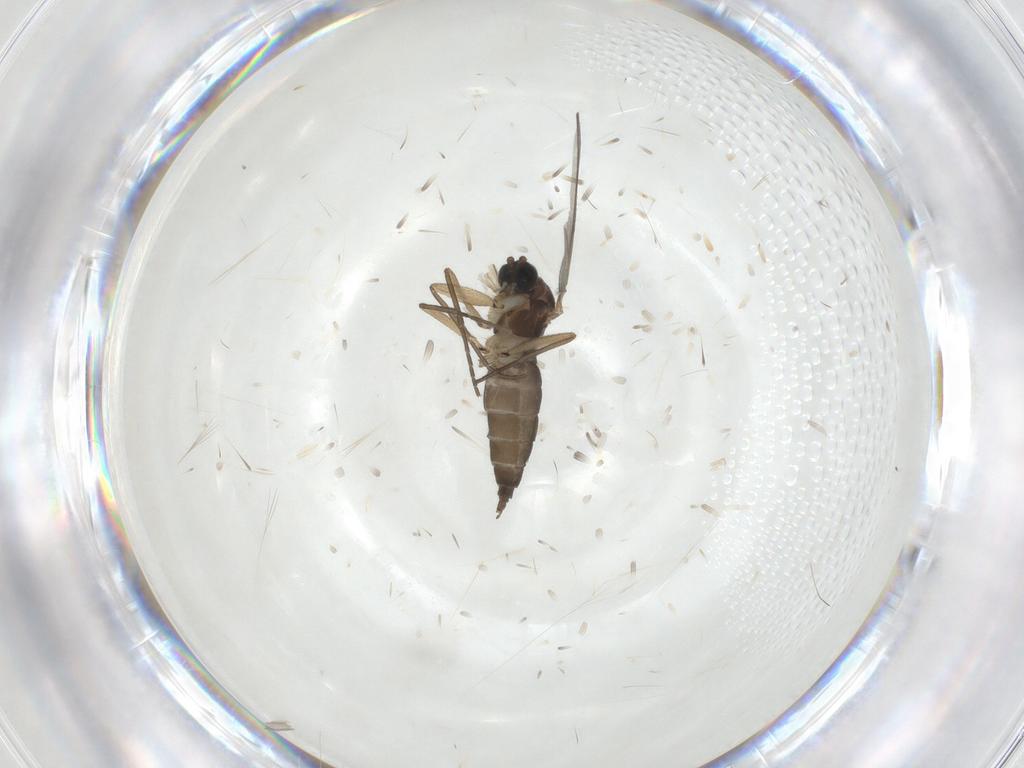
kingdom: Animalia
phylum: Arthropoda
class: Insecta
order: Diptera
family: Sciaridae
